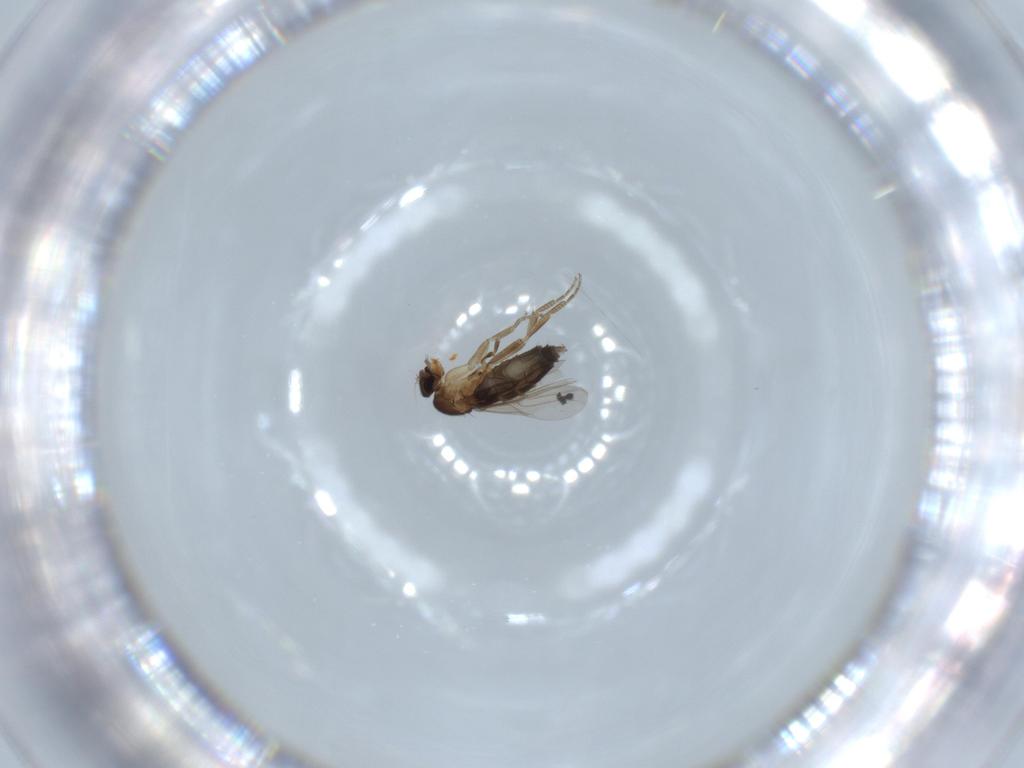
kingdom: Animalia
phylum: Arthropoda
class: Insecta
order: Diptera
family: Phoridae
